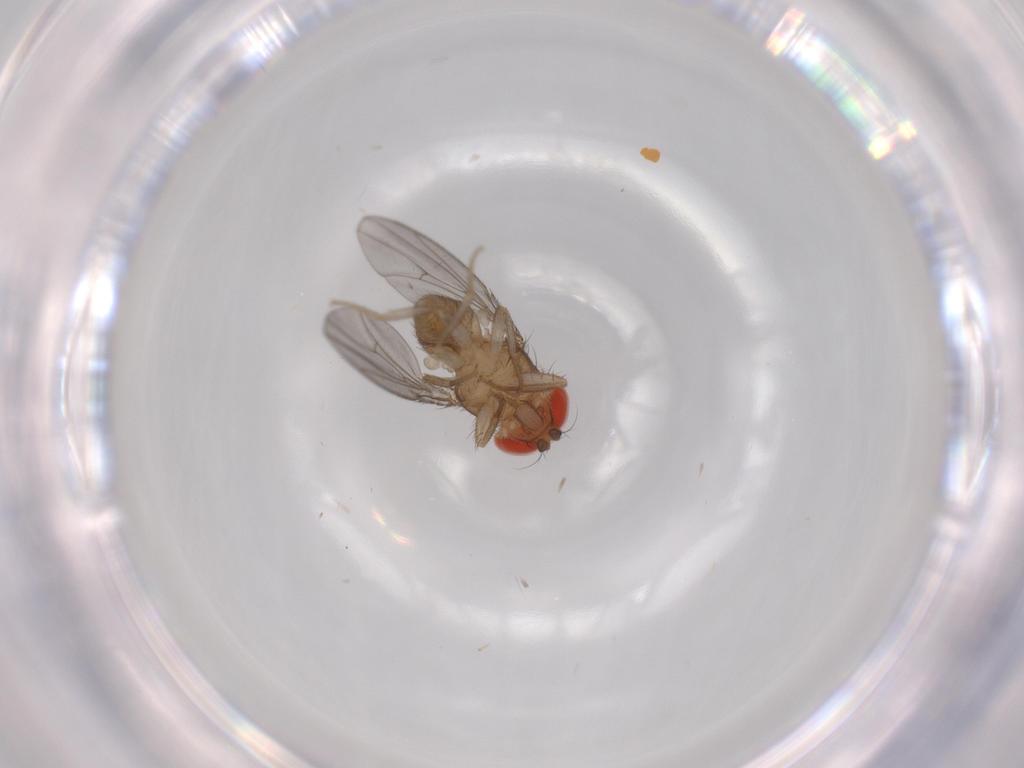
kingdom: Animalia
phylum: Arthropoda
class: Insecta
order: Diptera
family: Drosophilidae
